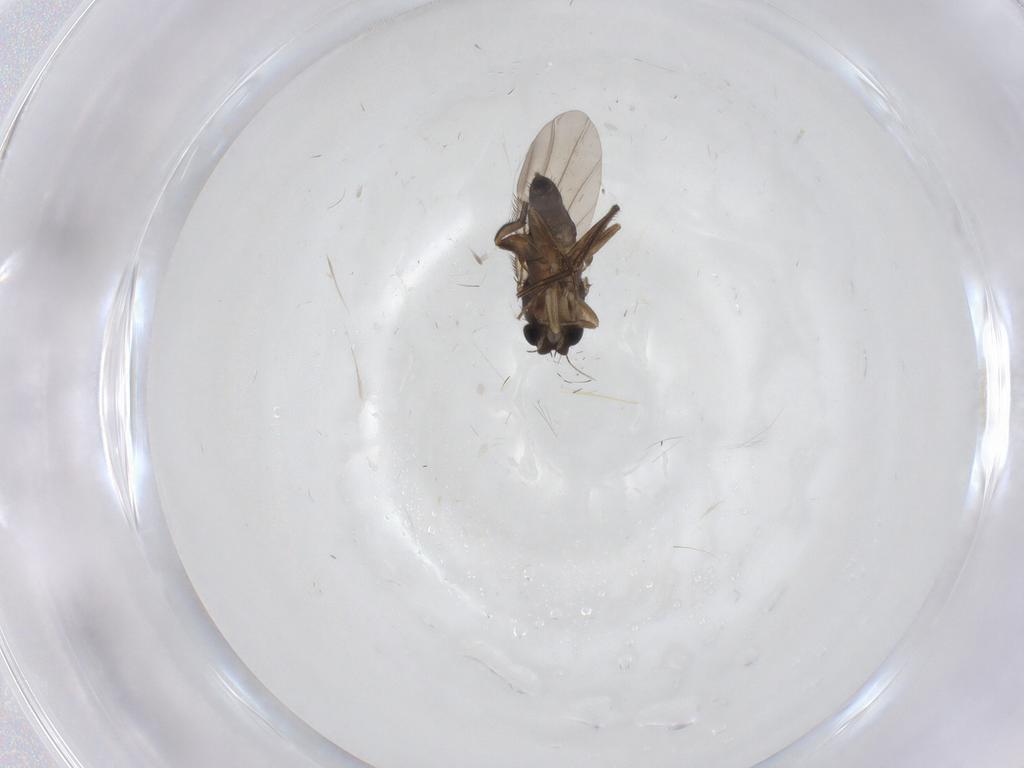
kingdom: Animalia
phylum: Arthropoda
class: Insecta
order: Diptera
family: Phoridae
